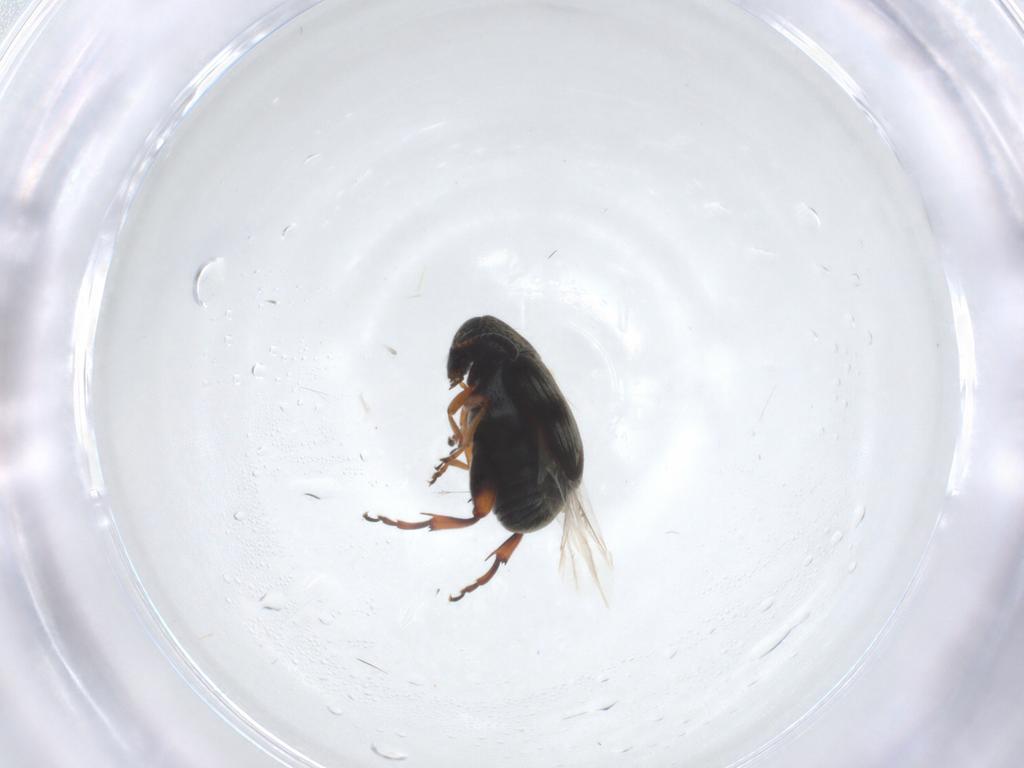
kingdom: Animalia
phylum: Arthropoda
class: Insecta
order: Coleoptera
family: Chrysomelidae
